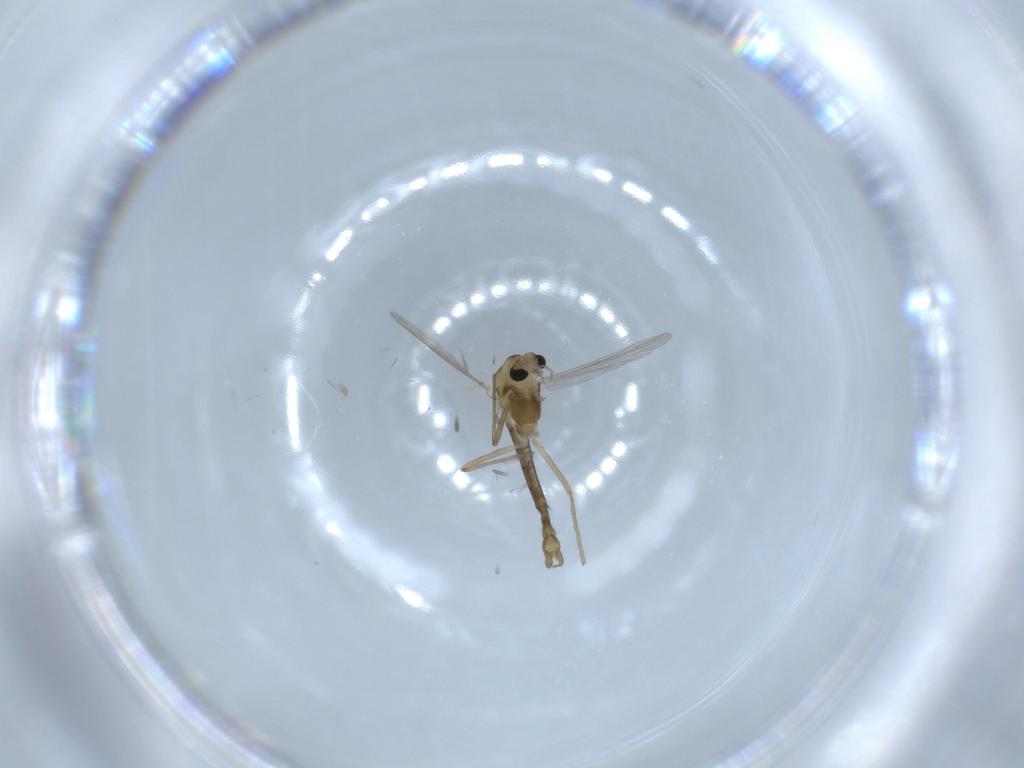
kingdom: Animalia
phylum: Arthropoda
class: Insecta
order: Diptera
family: Chironomidae
